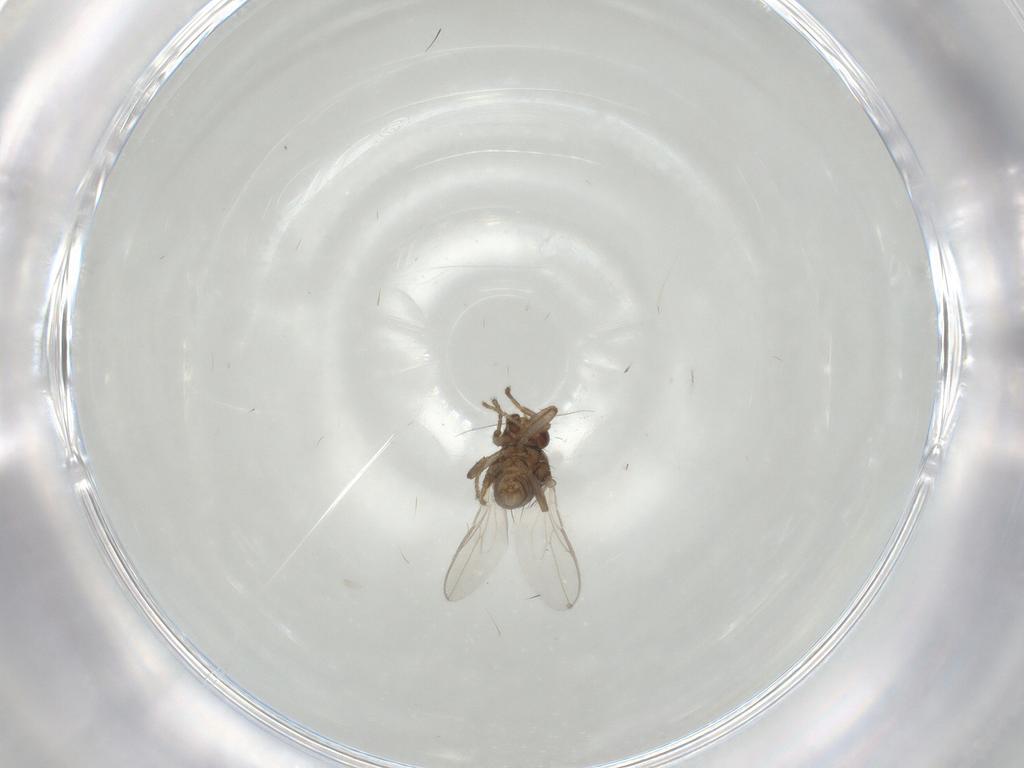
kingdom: Animalia
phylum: Arthropoda
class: Insecta
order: Diptera
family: Sphaeroceridae
